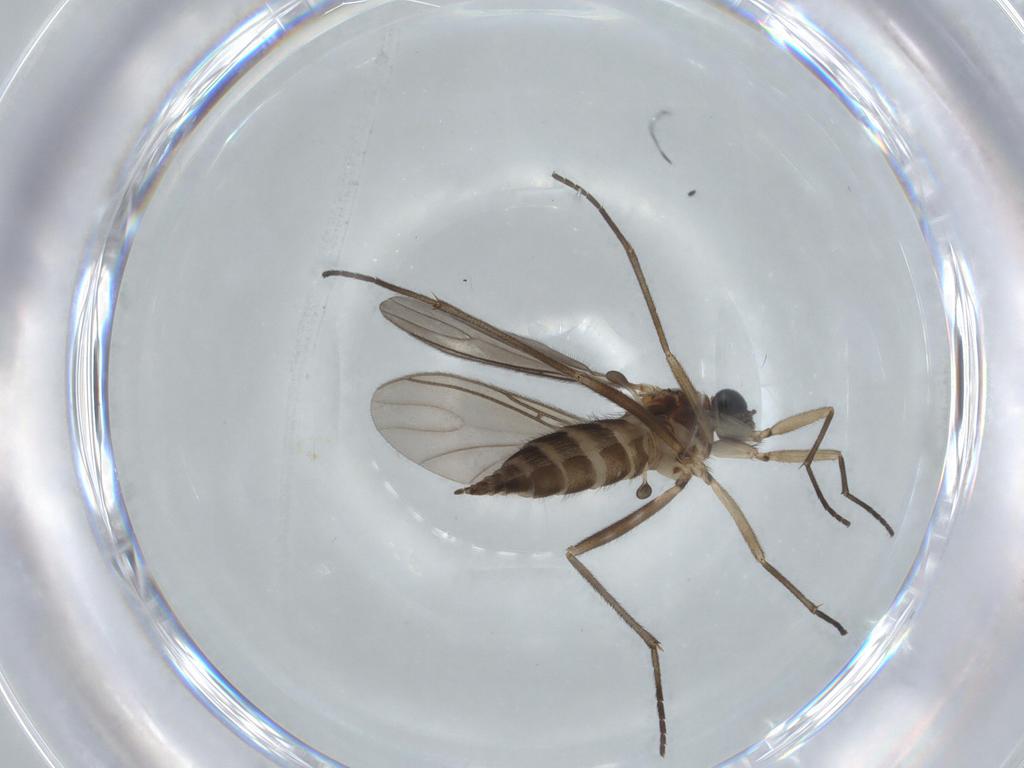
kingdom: Animalia
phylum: Arthropoda
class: Insecta
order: Diptera
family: Sciaridae
